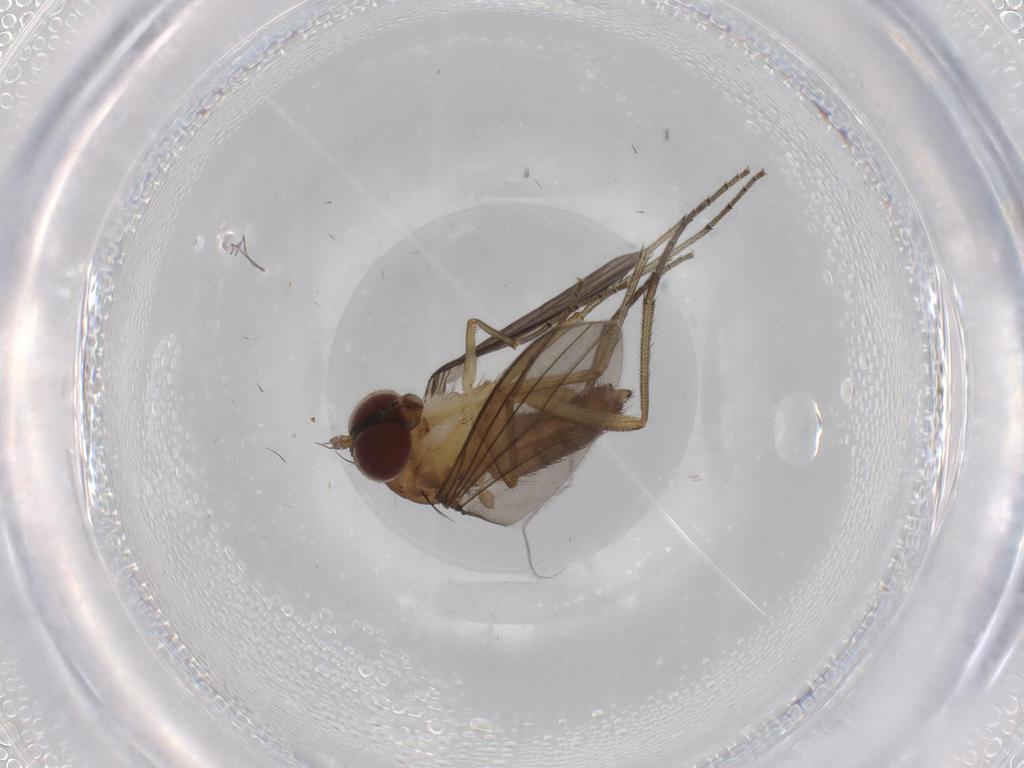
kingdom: Animalia
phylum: Arthropoda
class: Insecta
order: Diptera
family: Dolichopodidae
